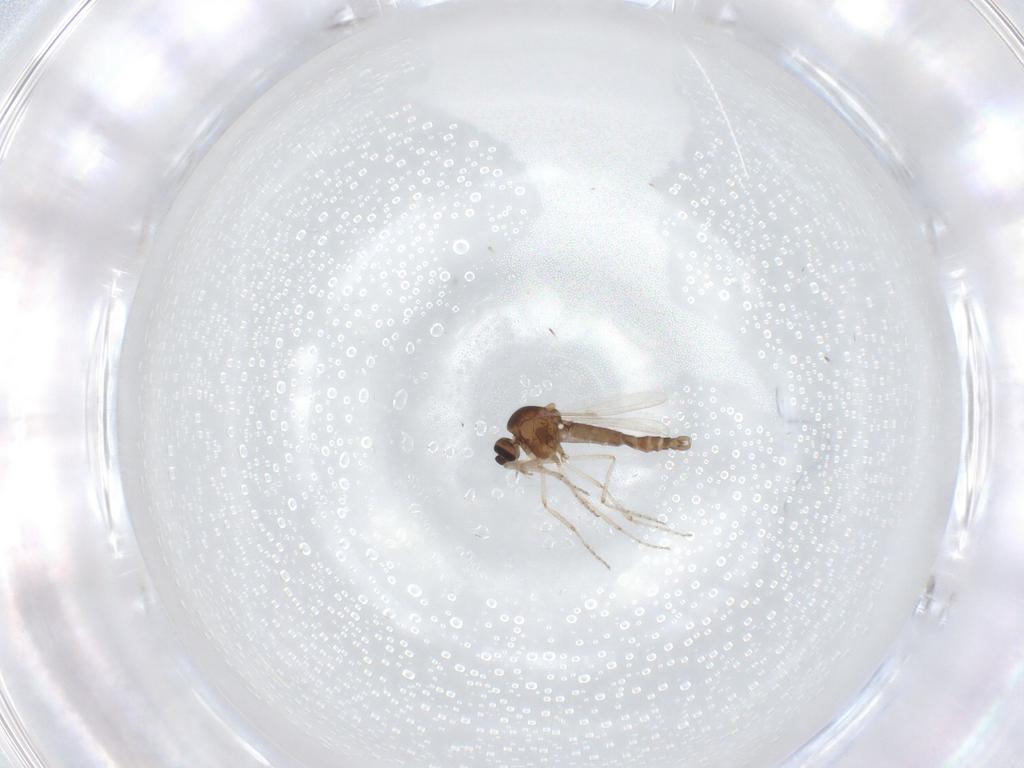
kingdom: Animalia
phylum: Arthropoda
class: Insecta
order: Diptera
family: Ceratopogonidae
